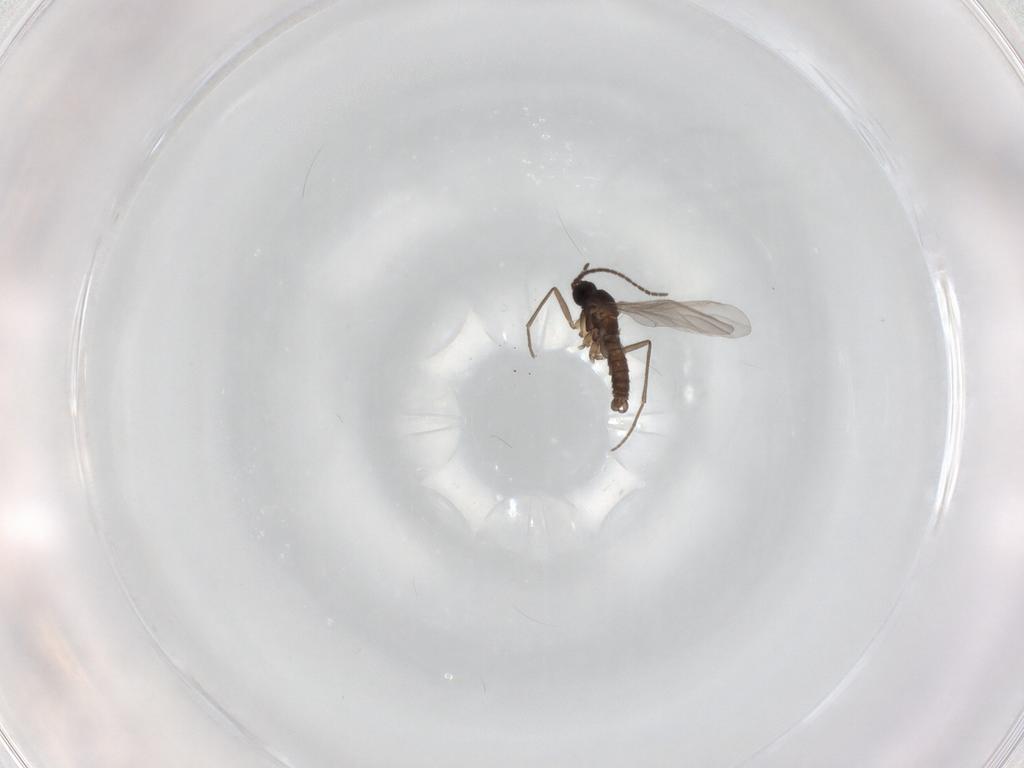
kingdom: Animalia
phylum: Arthropoda
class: Insecta
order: Diptera
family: Sciaridae
